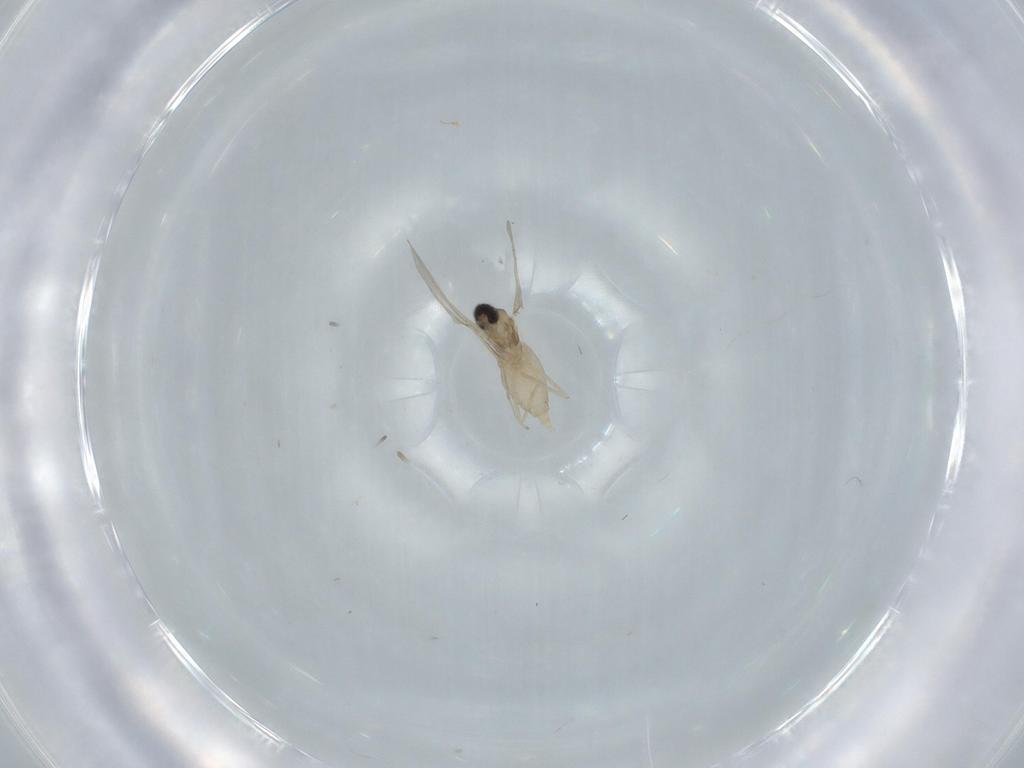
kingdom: Animalia
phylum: Arthropoda
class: Insecta
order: Diptera
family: Cecidomyiidae
